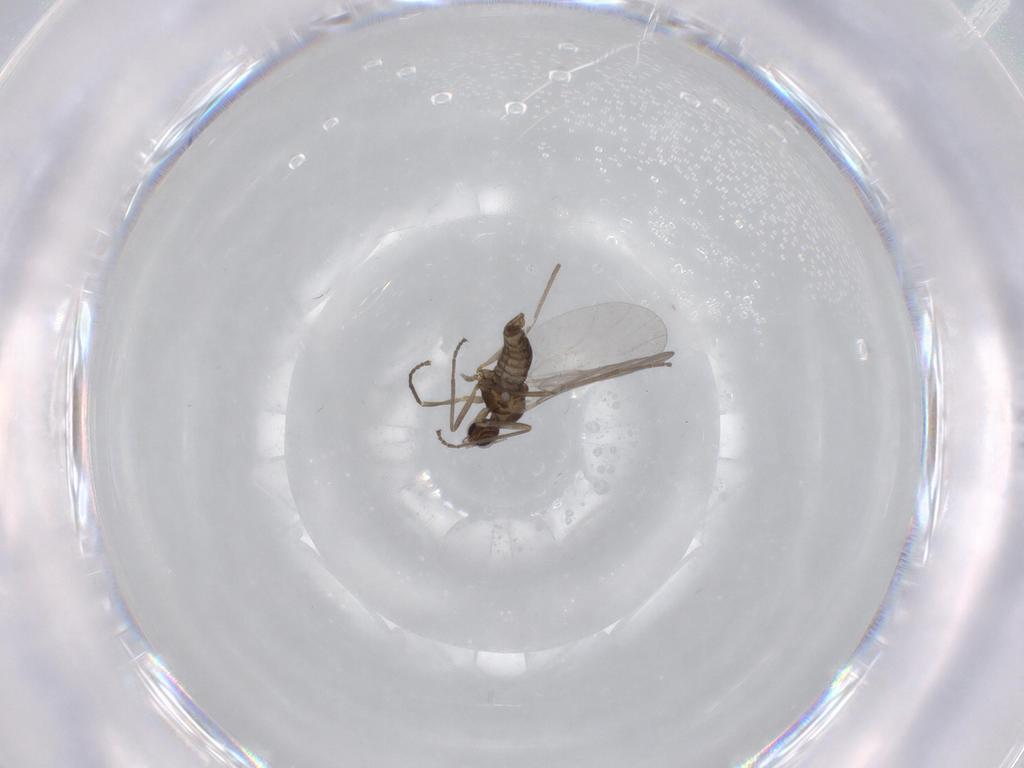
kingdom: Animalia
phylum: Arthropoda
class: Insecta
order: Diptera
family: Cecidomyiidae
